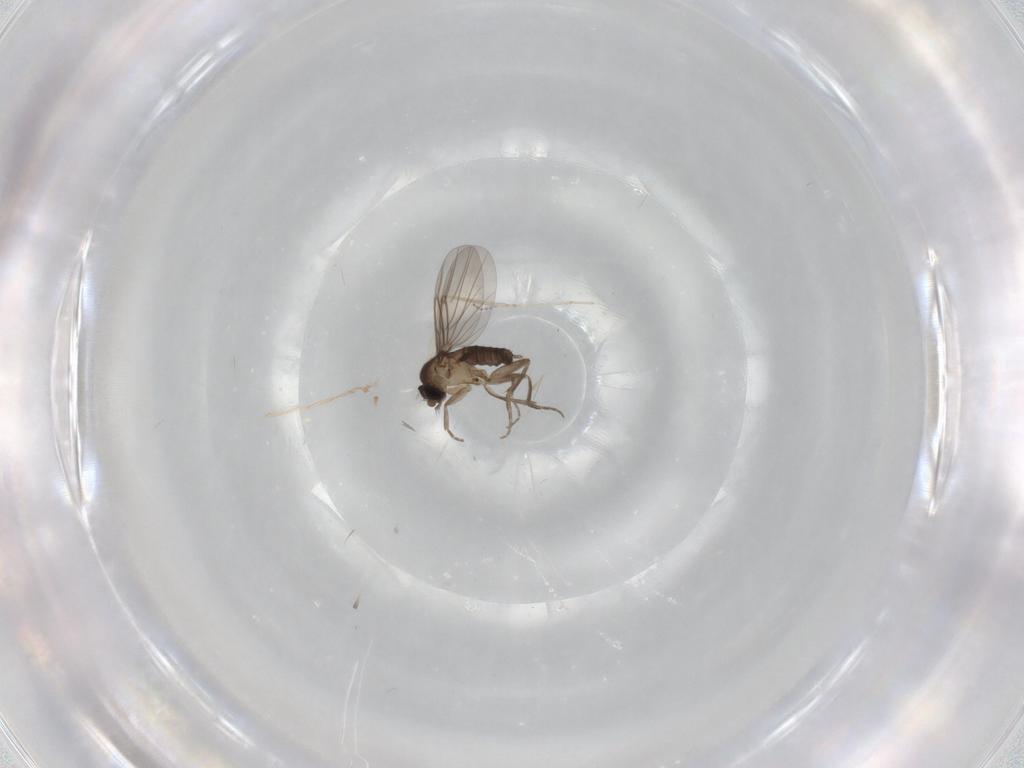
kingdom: Animalia
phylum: Arthropoda
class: Insecta
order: Diptera
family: Phoridae
